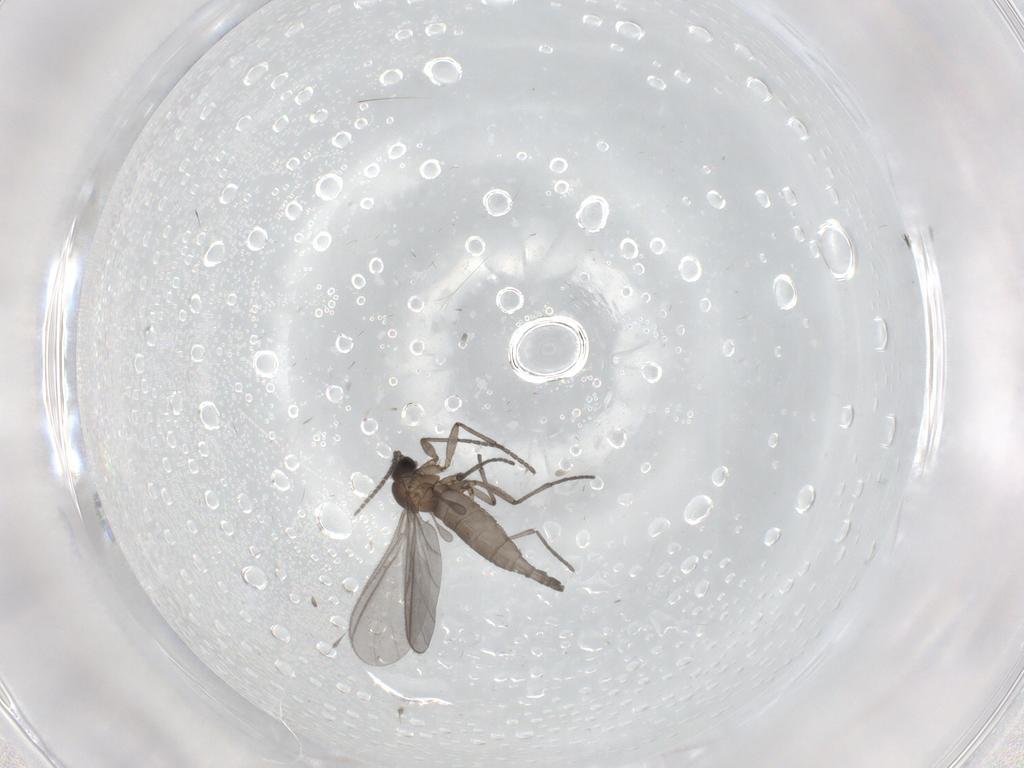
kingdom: Animalia
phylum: Arthropoda
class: Insecta
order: Diptera
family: Sciaridae
